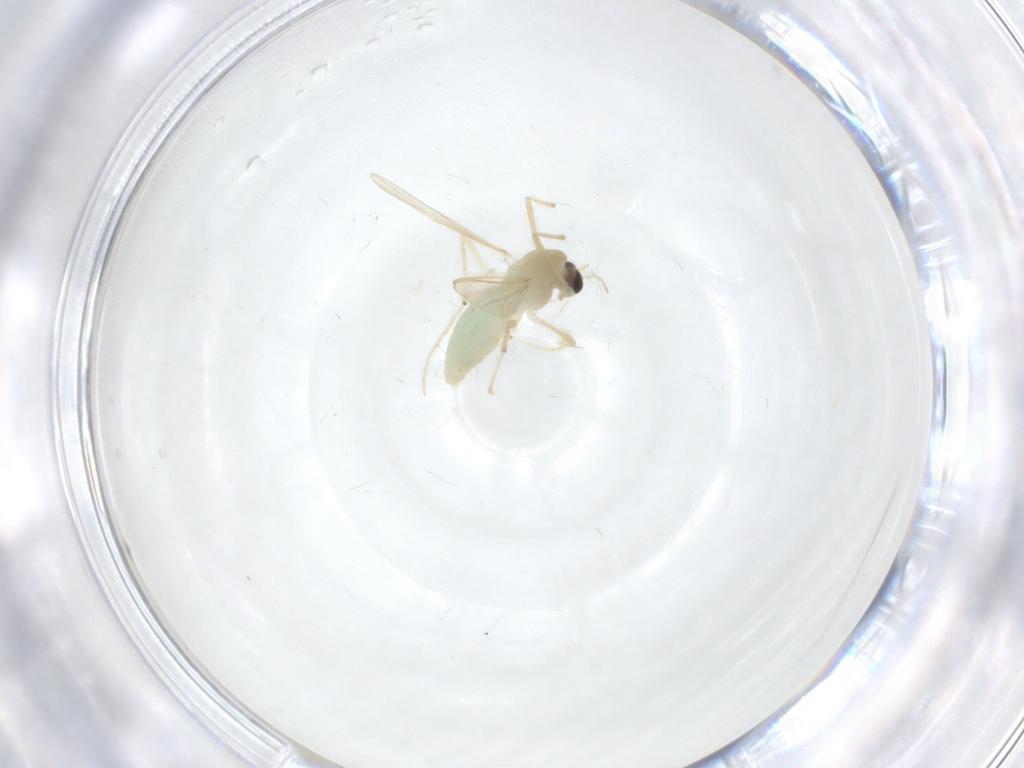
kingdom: Animalia
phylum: Arthropoda
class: Insecta
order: Diptera
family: Chironomidae
